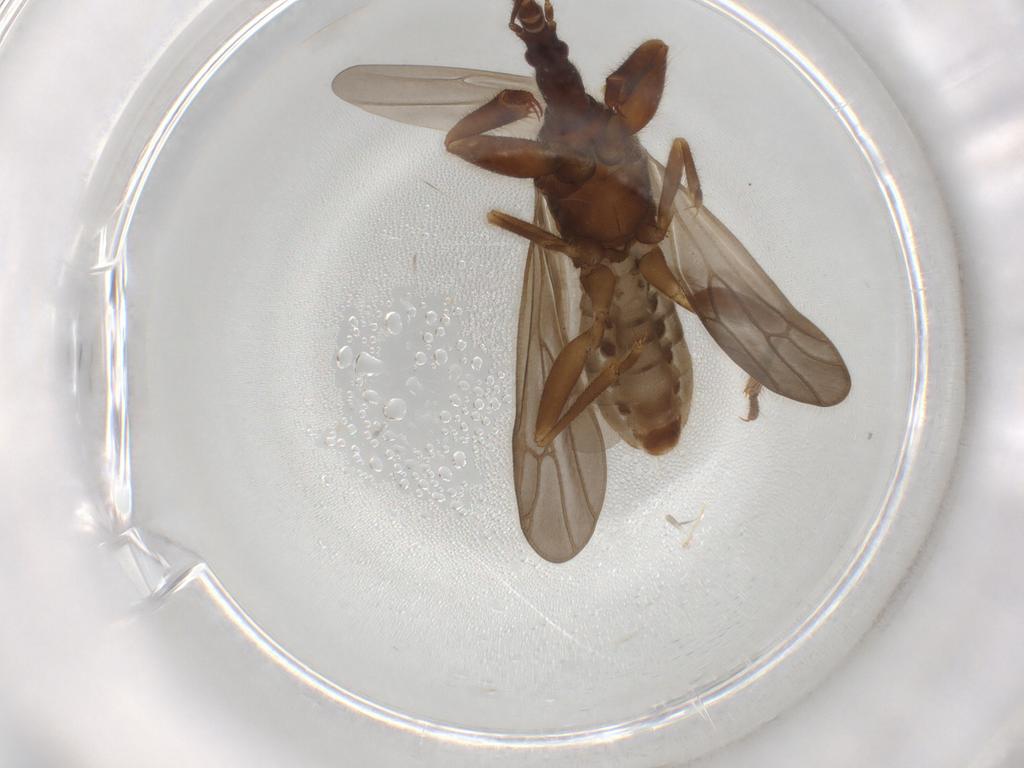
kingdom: Animalia
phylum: Arthropoda
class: Insecta
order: Hemiptera
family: Enicocephalidae
